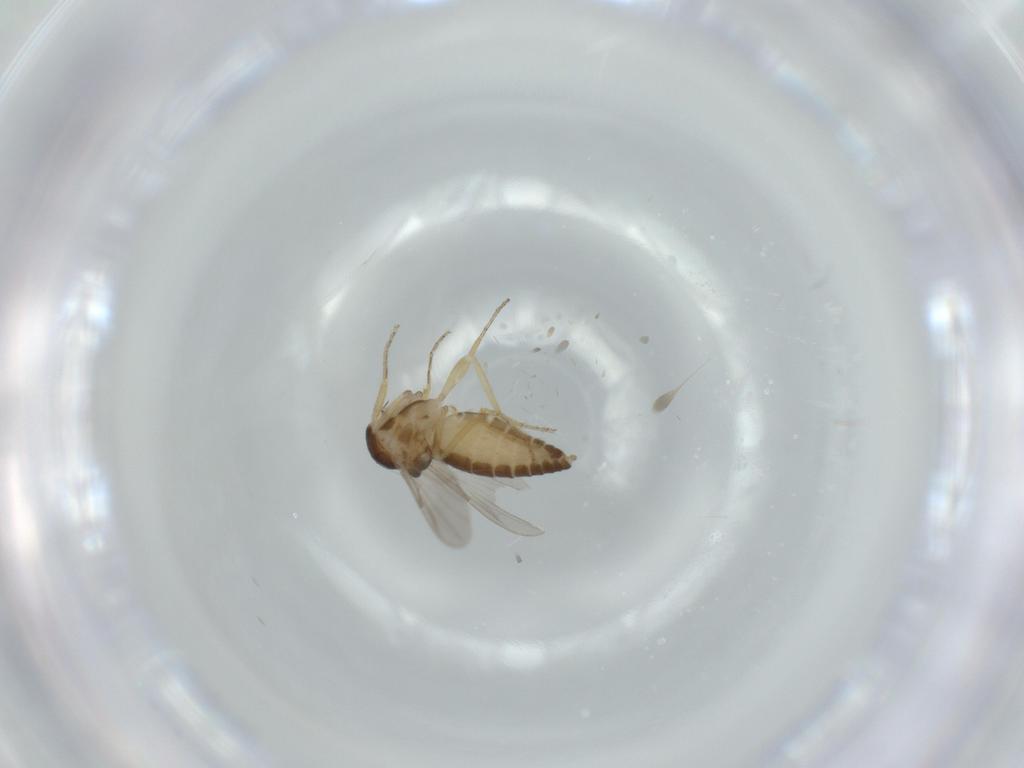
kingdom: Animalia
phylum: Arthropoda
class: Insecta
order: Diptera
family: Ceratopogonidae
